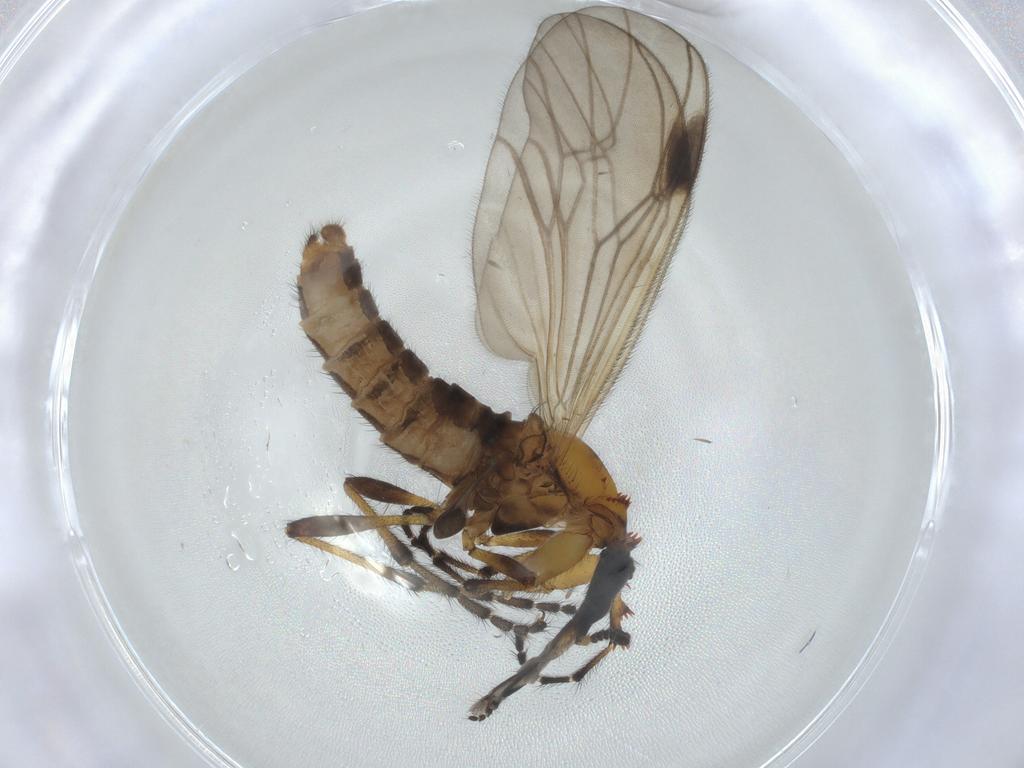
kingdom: Animalia
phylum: Arthropoda
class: Insecta
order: Diptera
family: Bibionidae
